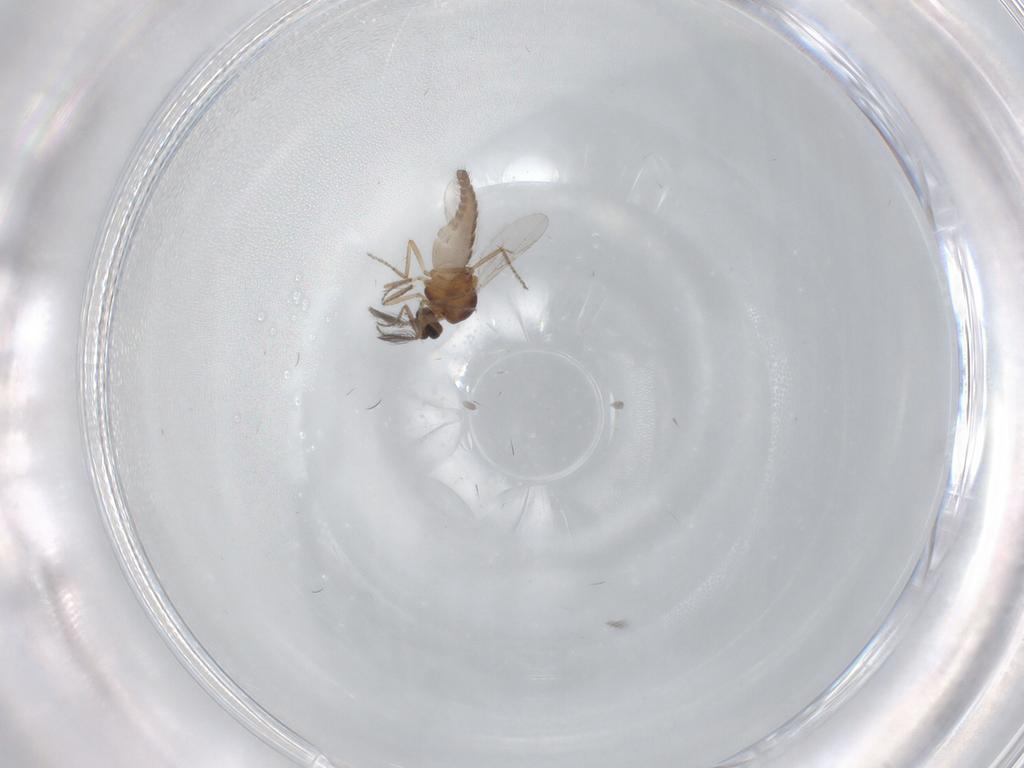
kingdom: Animalia
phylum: Arthropoda
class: Insecta
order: Diptera
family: Ceratopogonidae
